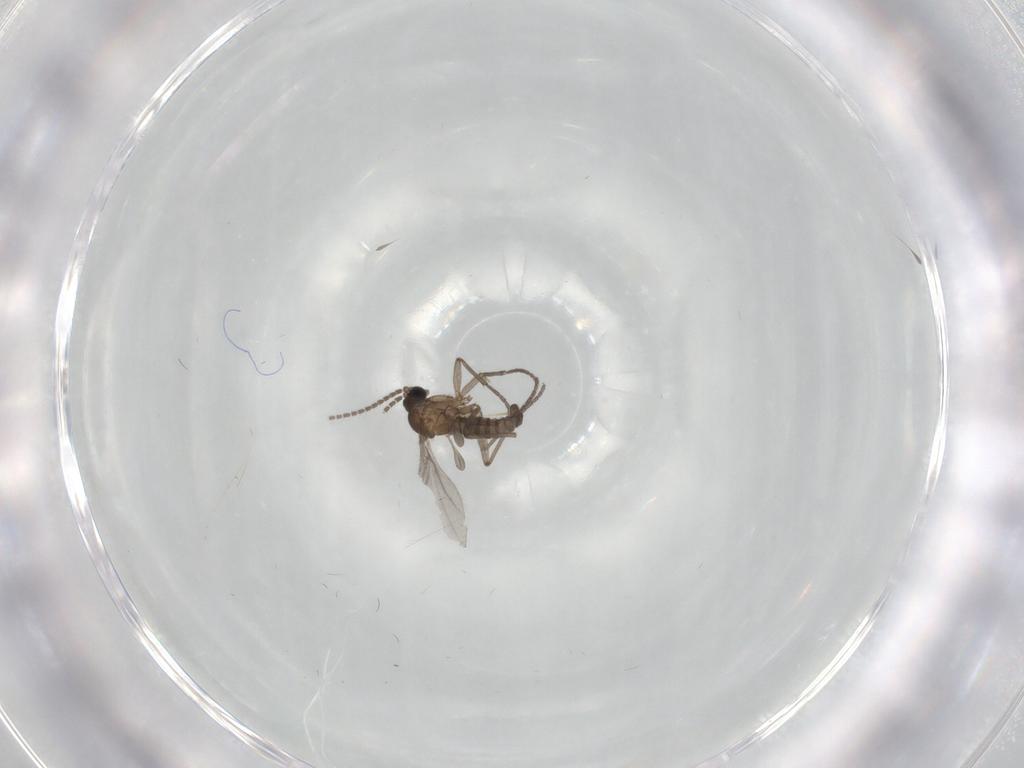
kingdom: Animalia
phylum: Arthropoda
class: Insecta
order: Diptera
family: Sciaridae
